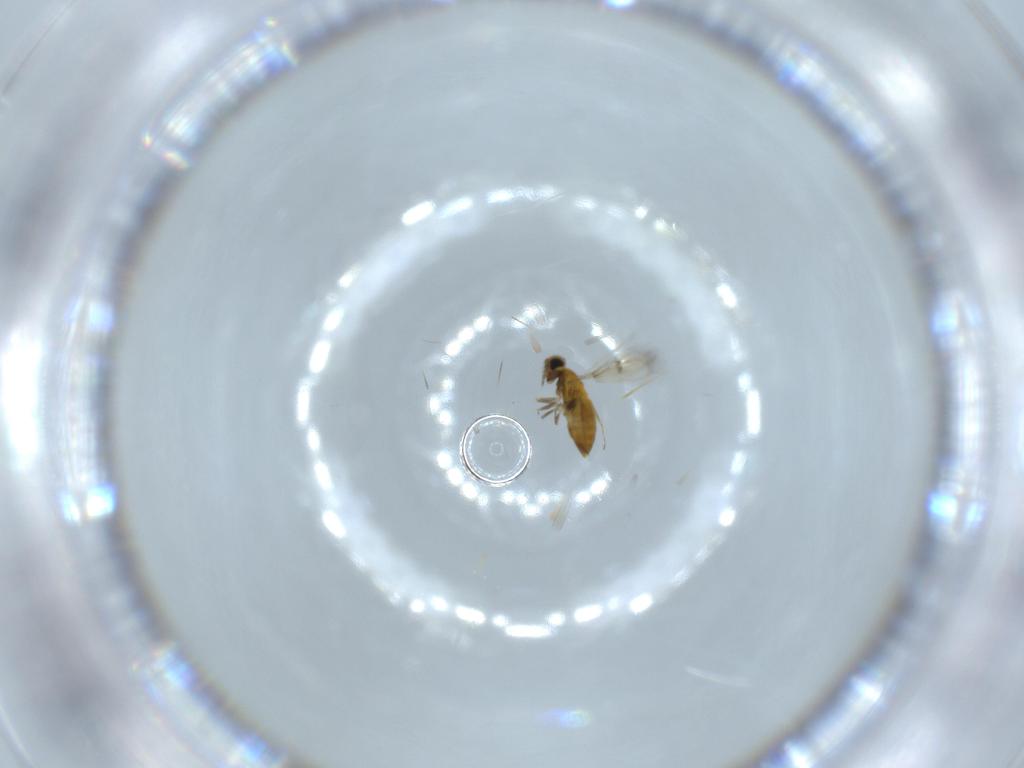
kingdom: Animalia
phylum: Arthropoda
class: Insecta
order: Hymenoptera
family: Trichogrammatidae
